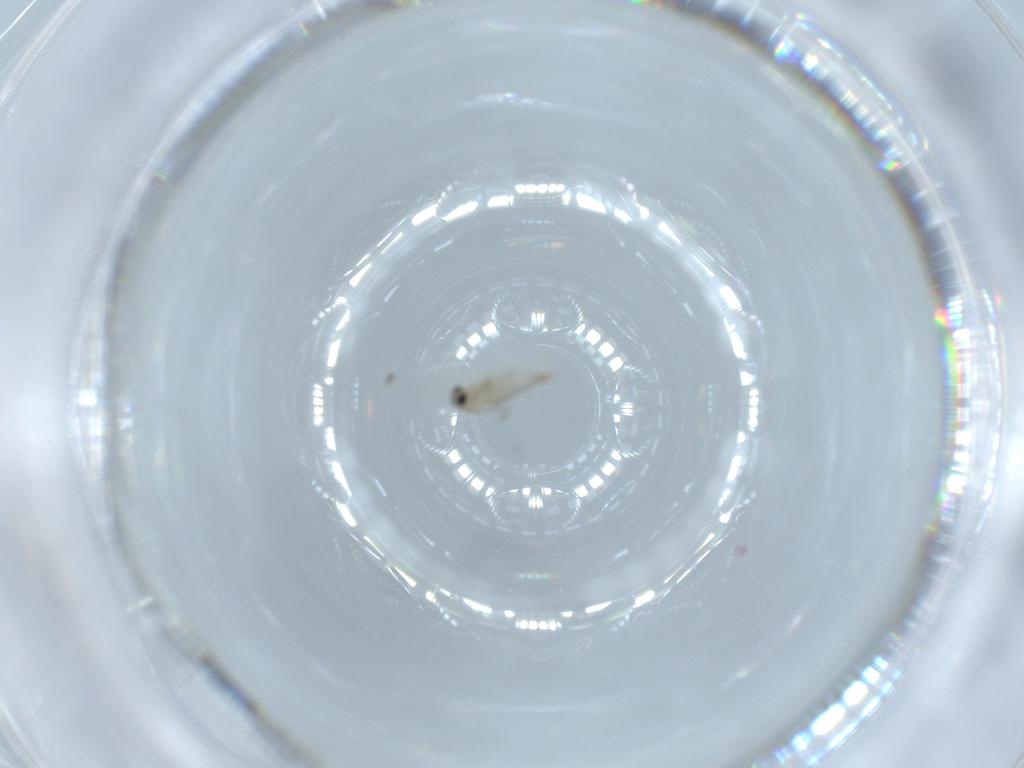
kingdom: Animalia
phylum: Arthropoda
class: Insecta
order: Diptera
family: Cecidomyiidae
